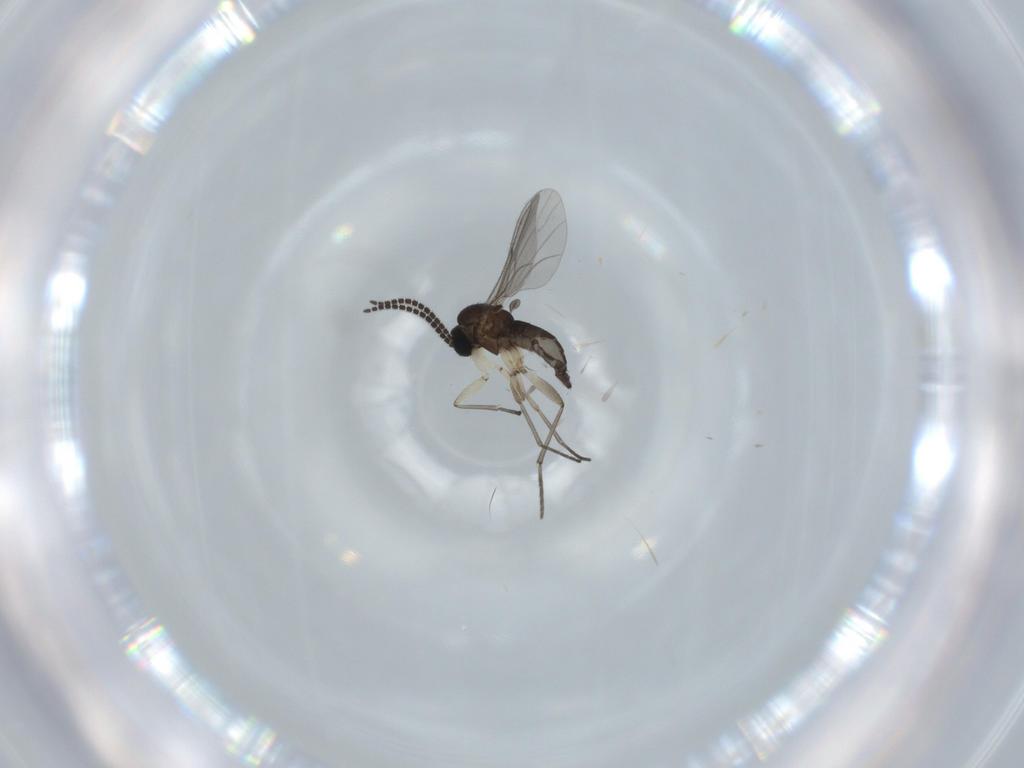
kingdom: Animalia
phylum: Arthropoda
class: Insecta
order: Diptera
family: Sciaridae
